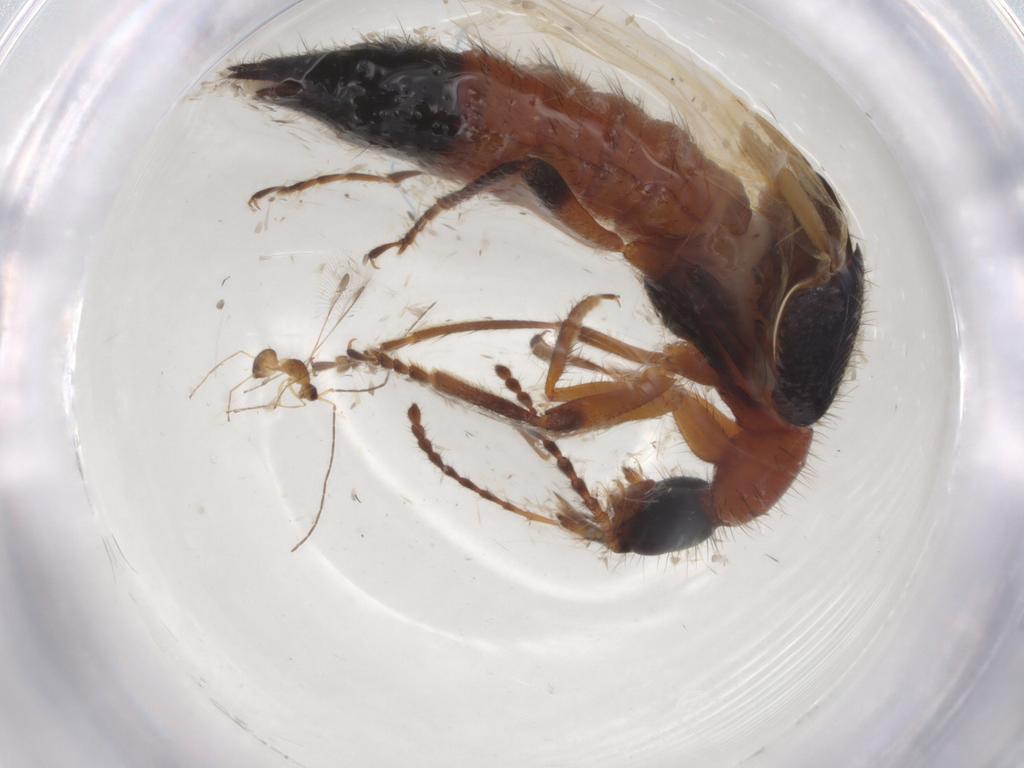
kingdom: Animalia
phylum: Arthropoda
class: Insecta
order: Coleoptera
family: Staphylinidae
